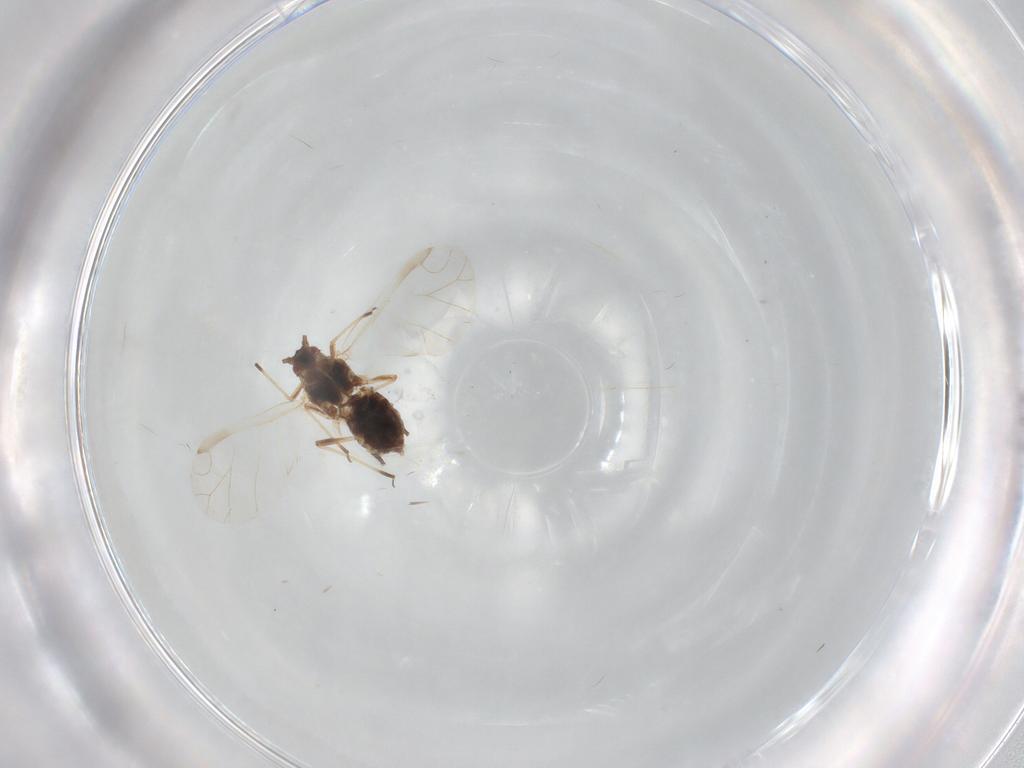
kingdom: Animalia
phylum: Arthropoda
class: Insecta
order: Hemiptera
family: Aphididae
